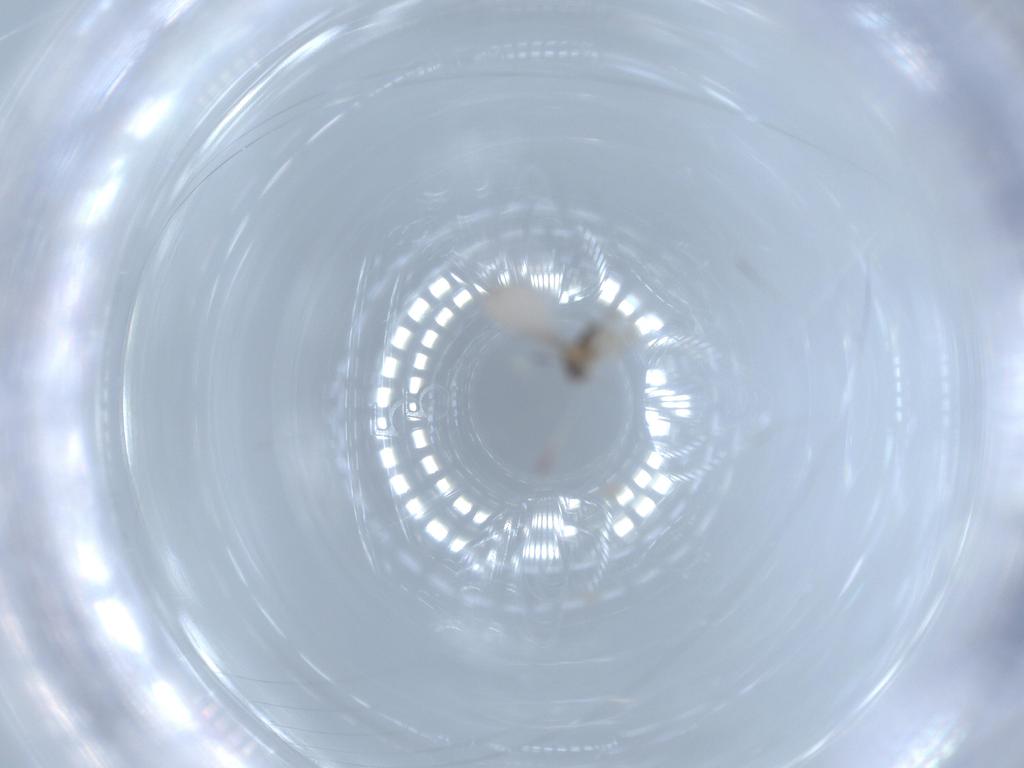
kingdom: Animalia
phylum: Arthropoda
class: Insecta
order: Diptera
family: Cecidomyiidae
